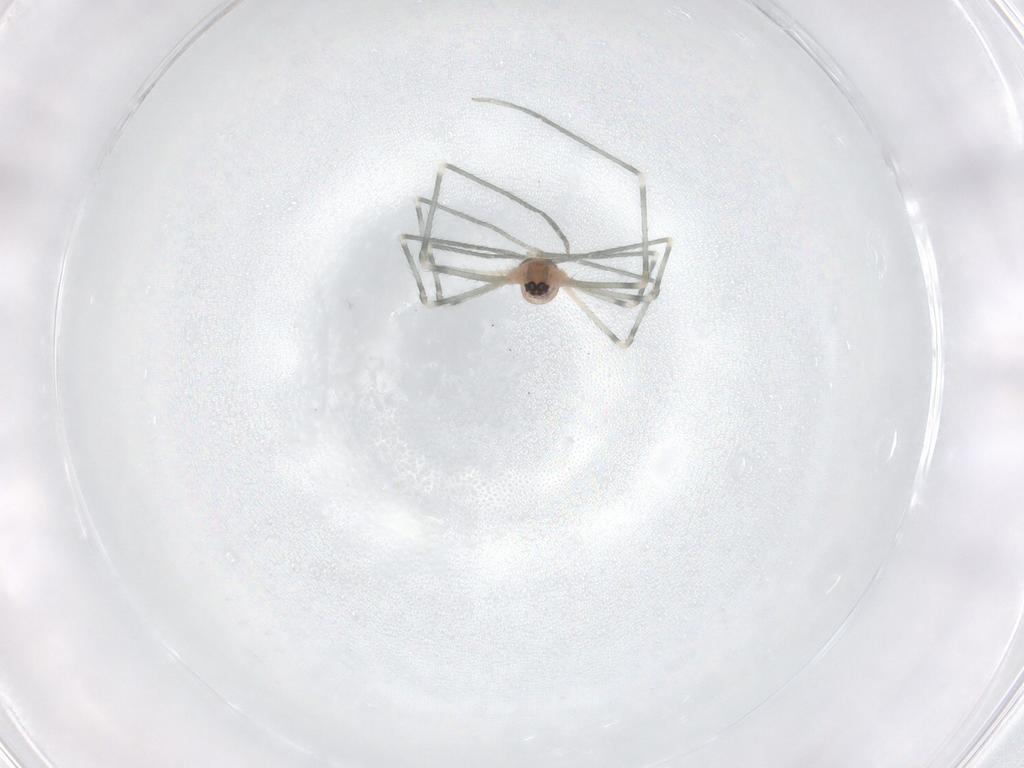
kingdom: Animalia
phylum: Arthropoda
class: Arachnida
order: Araneae
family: Pholcidae
